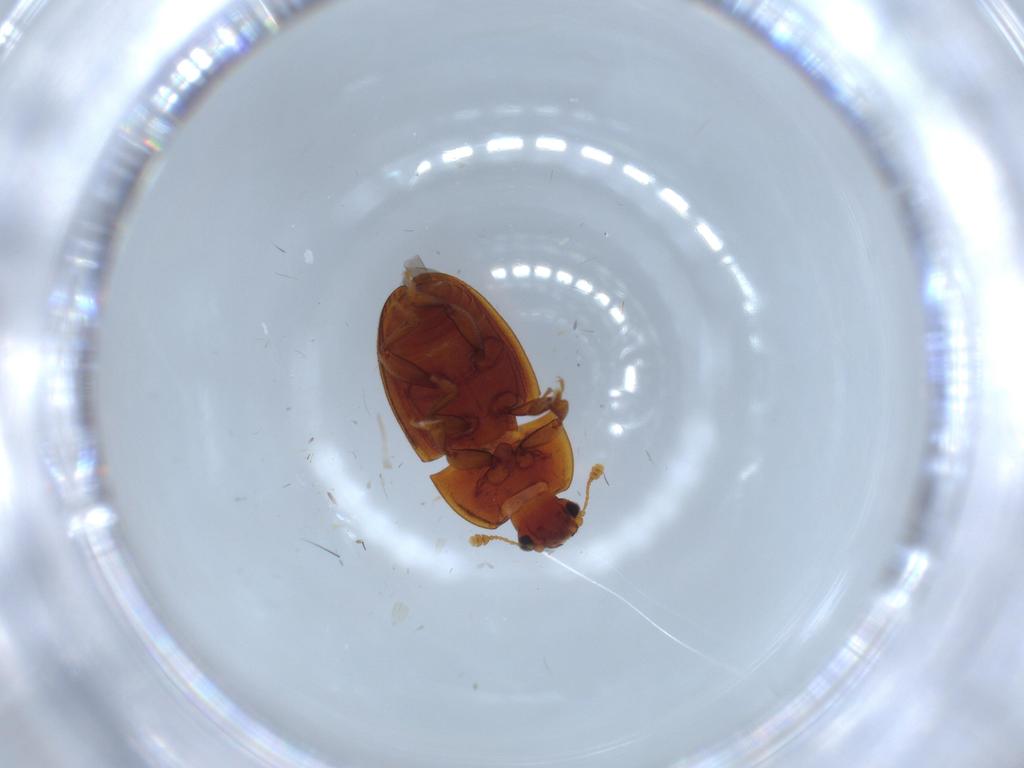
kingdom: Animalia
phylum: Arthropoda
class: Insecta
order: Coleoptera
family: Nitidulidae
